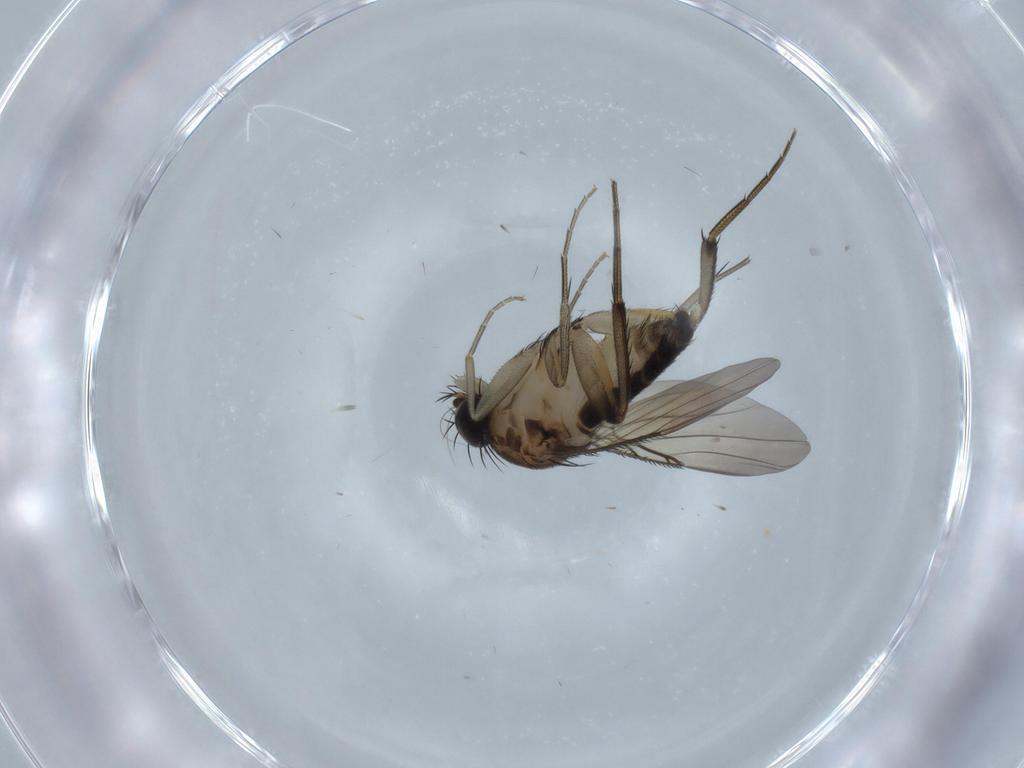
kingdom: Animalia
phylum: Arthropoda
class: Insecta
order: Diptera
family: Phoridae
